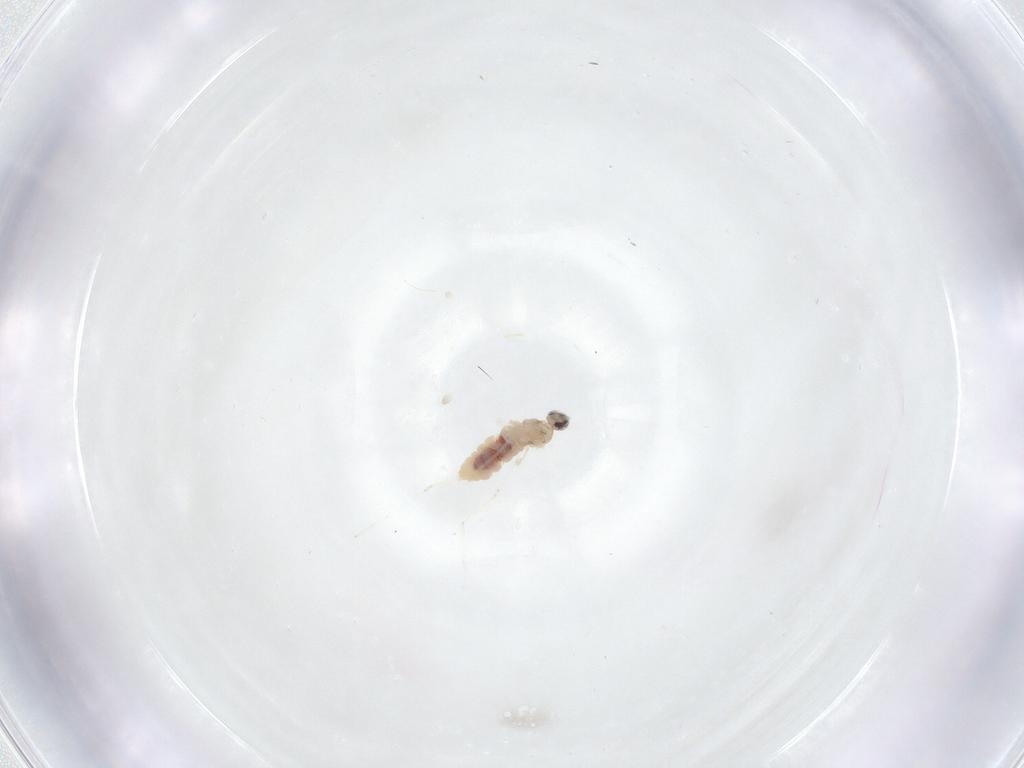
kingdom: Animalia
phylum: Arthropoda
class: Insecta
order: Diptera
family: Cecidomyiidae
